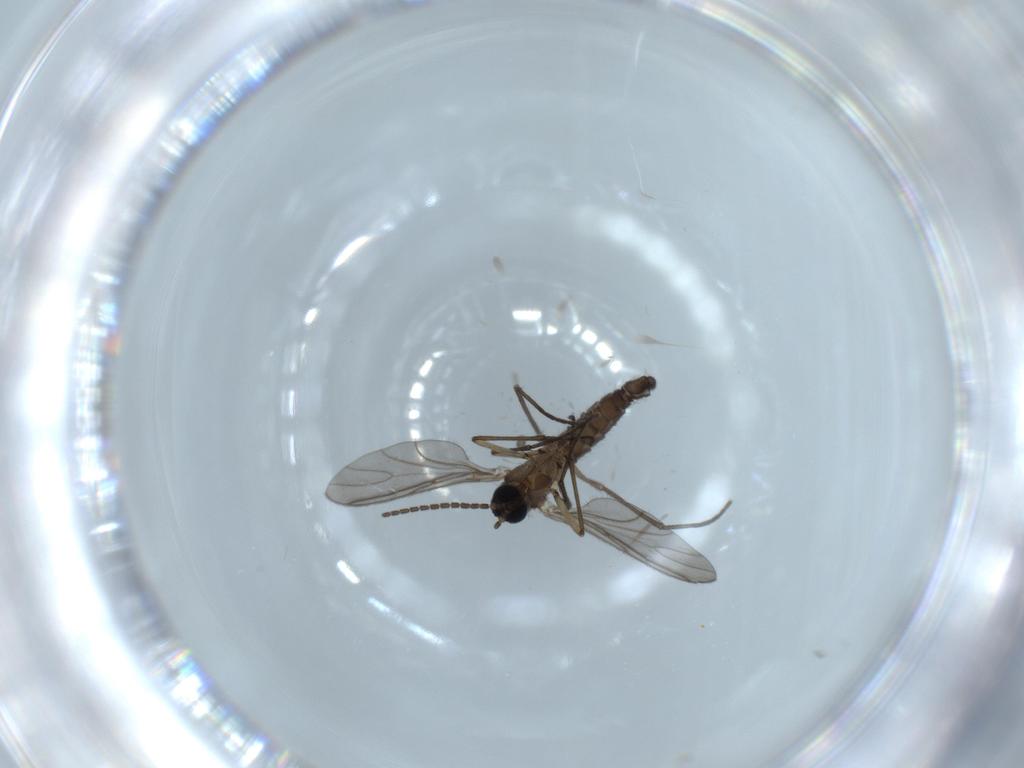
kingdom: Animalia
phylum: Arthropoda
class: Insecta
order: Diptera
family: Sciaridae
